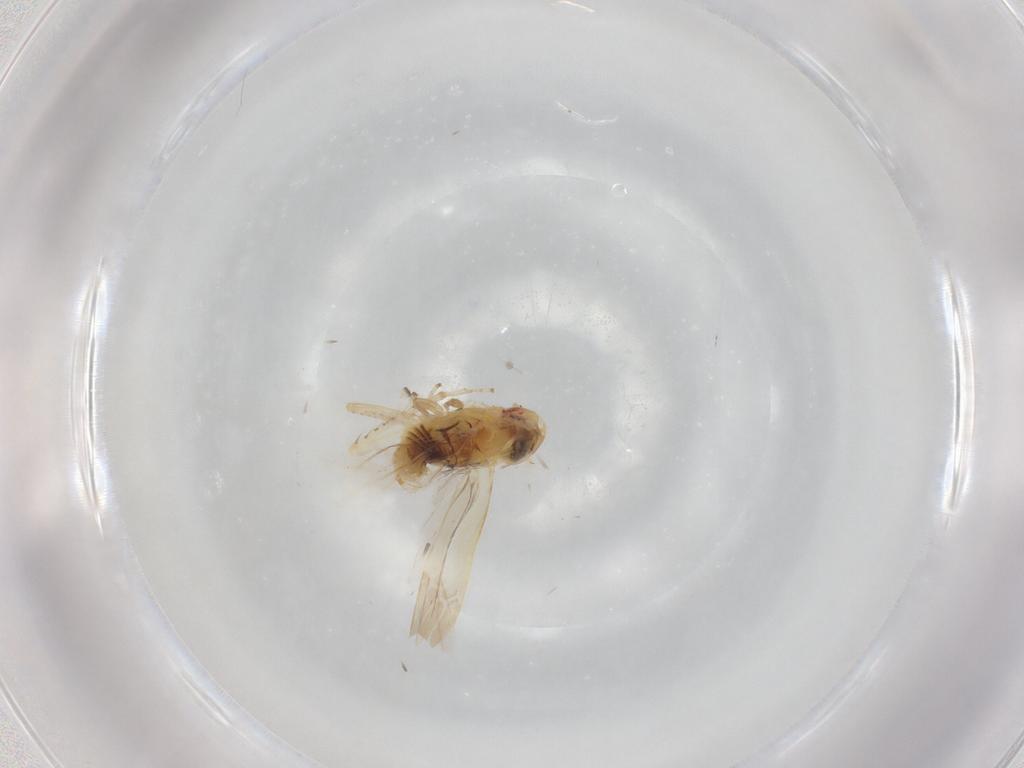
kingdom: Animalia
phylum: Arthropoda
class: Insecta
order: Hemiptera
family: Cicadellidae
